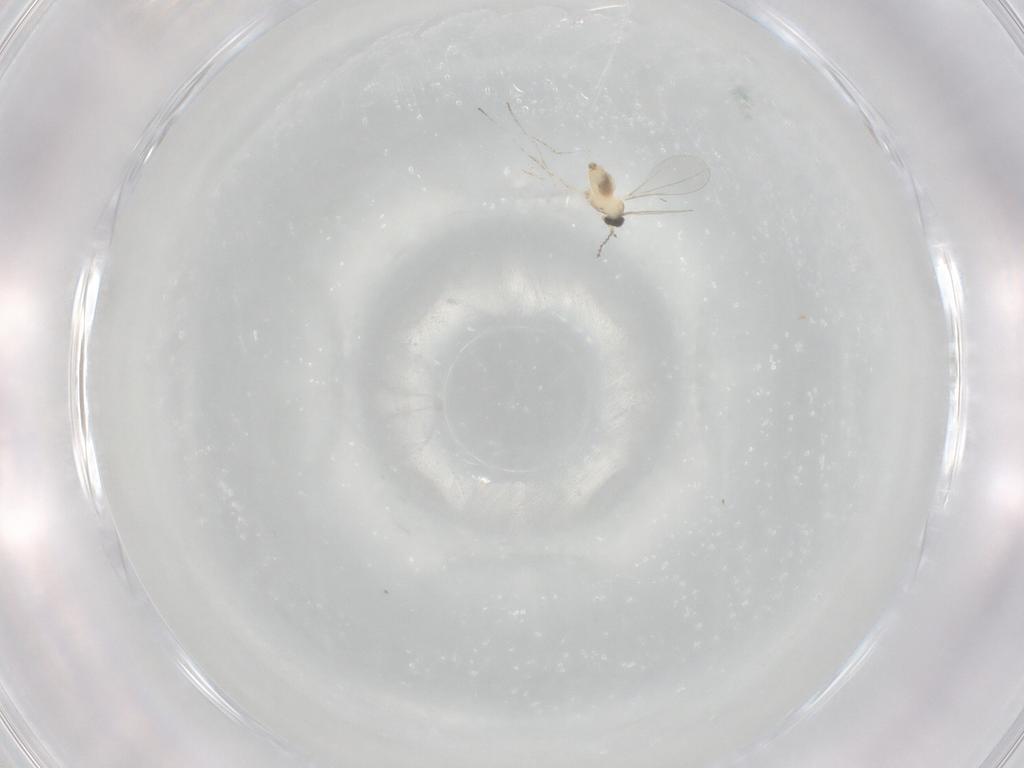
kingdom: Animalia
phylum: Arthropoda
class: Insecta
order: Diptera
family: Cecidomyiidae
